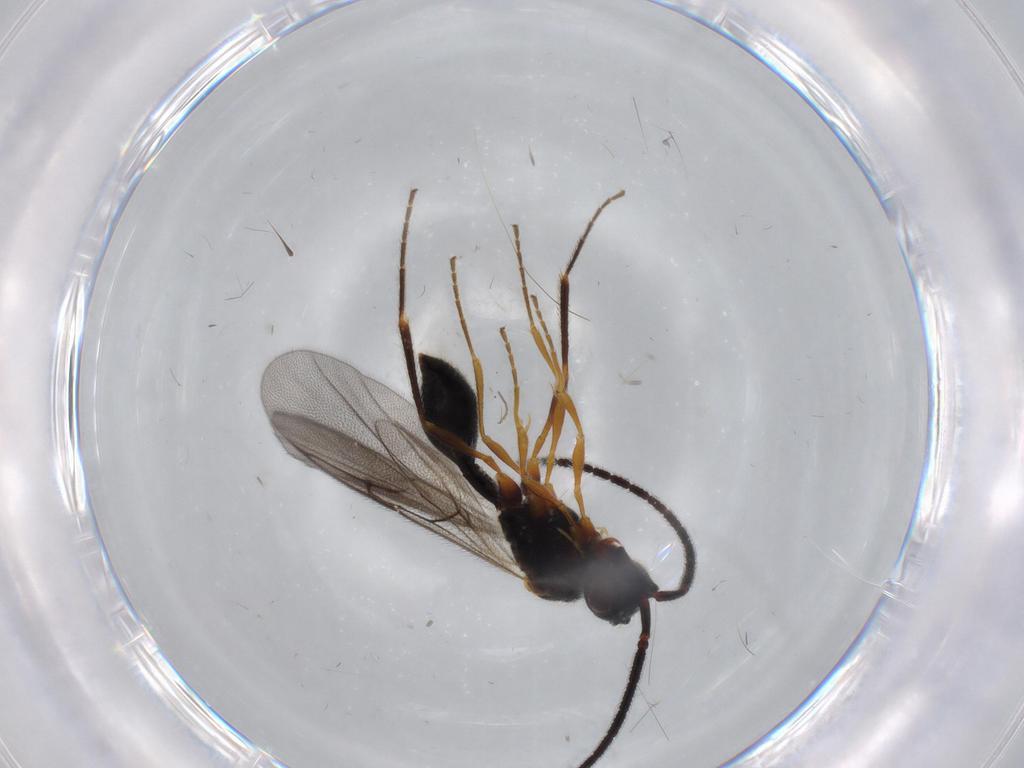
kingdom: Animalia
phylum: Arthropoda
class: Insecta
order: Hymenoptera
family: Diapriidae
